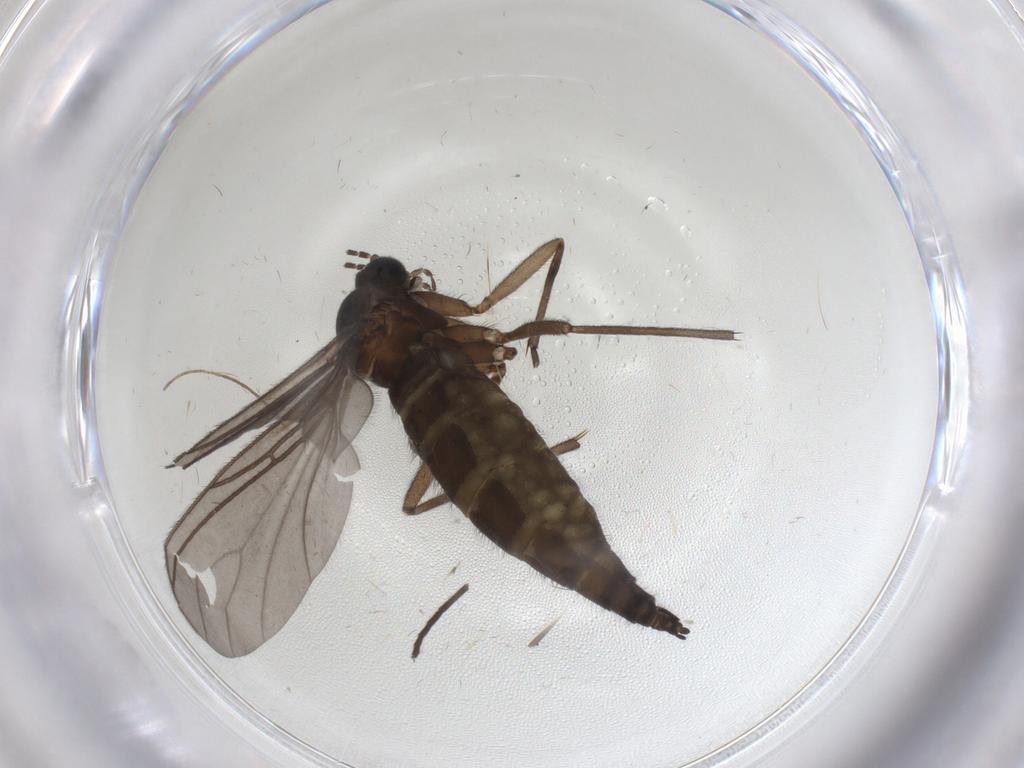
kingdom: Animalia
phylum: Arthropoda
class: Insecta
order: Diptera
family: Sciaridae
